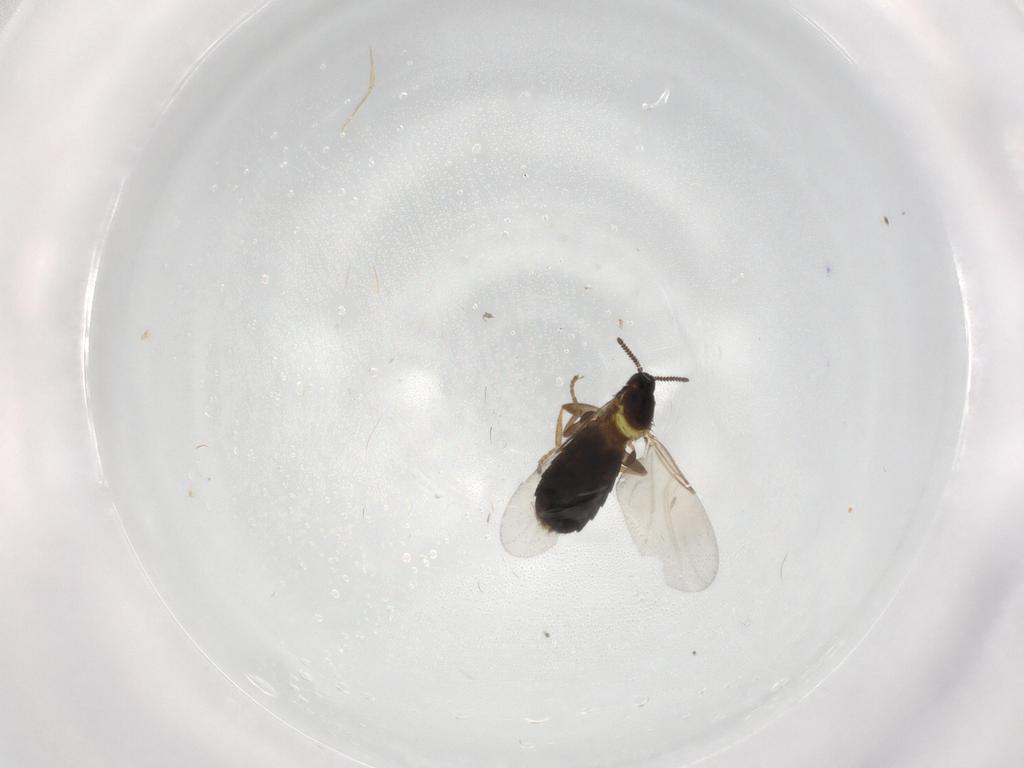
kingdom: Animalia
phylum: Arthropoda
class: Insecta
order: Diptera
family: Scatopsidae
